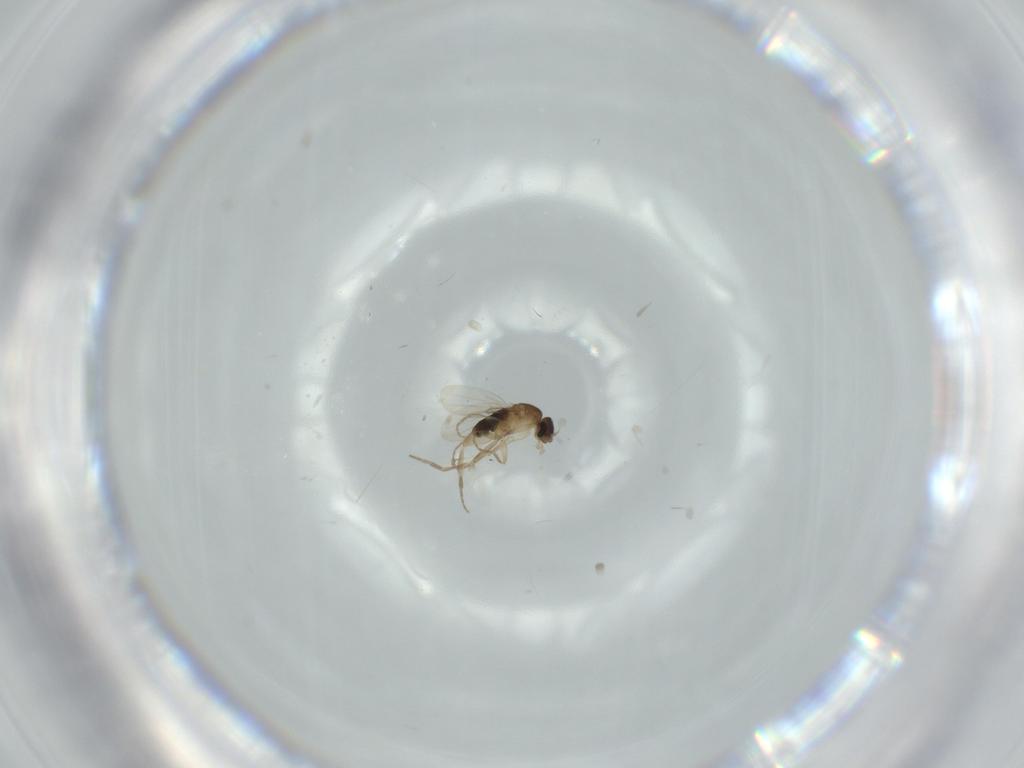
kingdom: Animalia
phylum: Arthropoda
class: Insecta
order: Diptera
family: Phoridae
